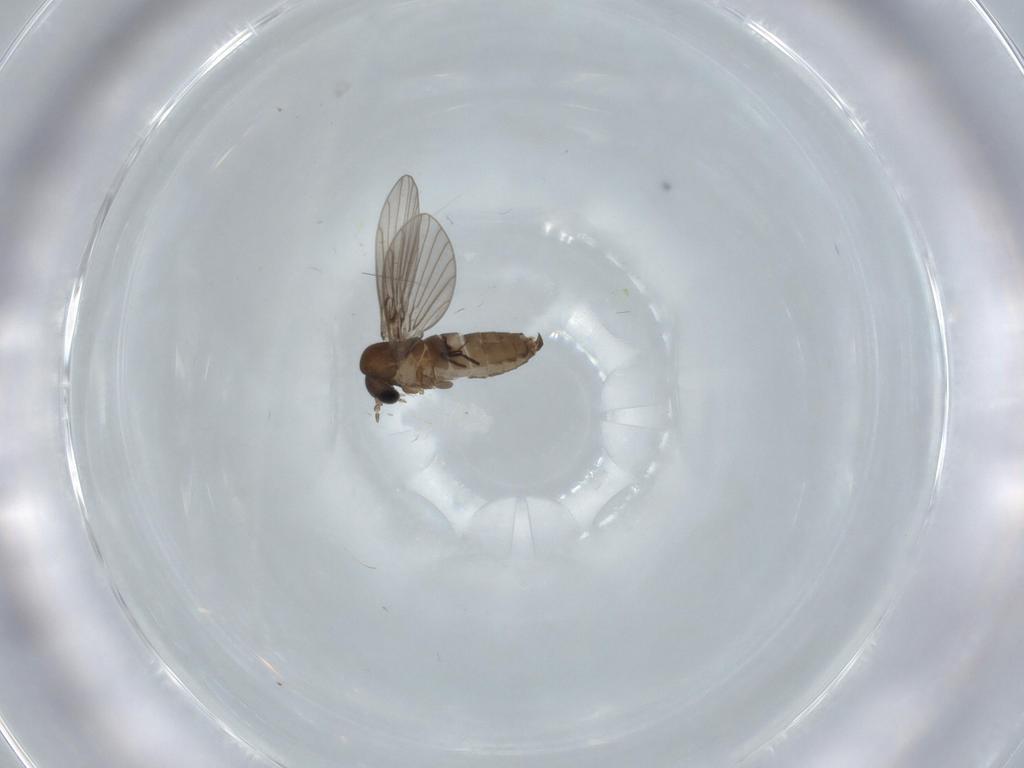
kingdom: Animalia
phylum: Arthropoda
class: Insecta
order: Diptera
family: Psychodidae
